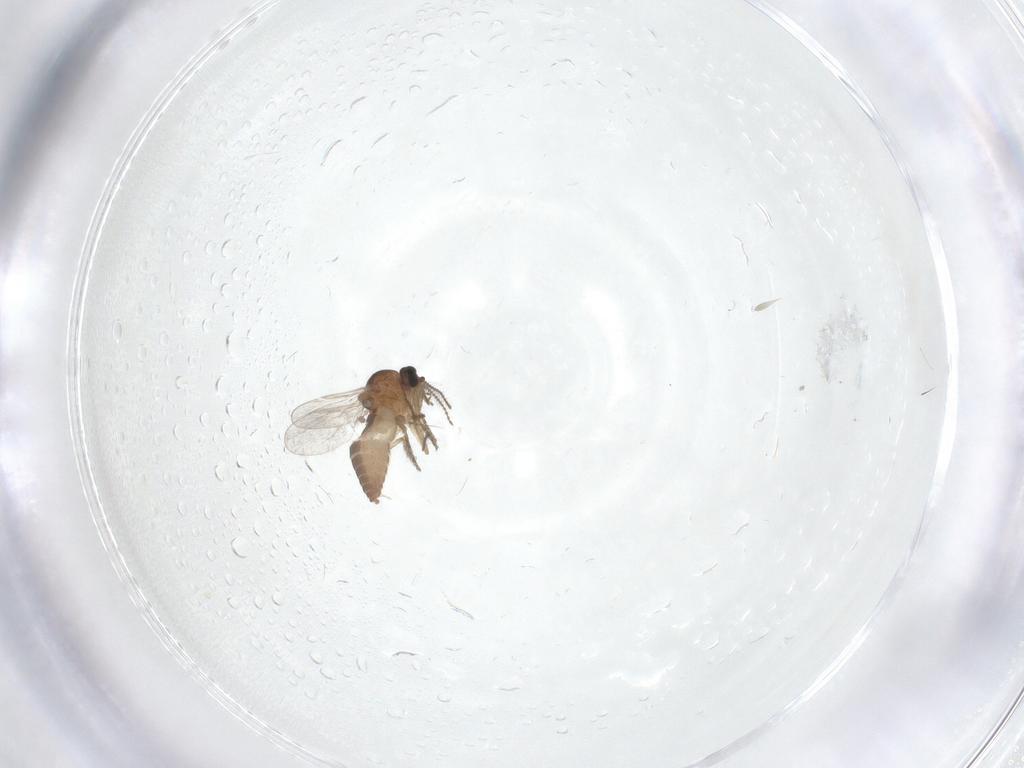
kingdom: Animalia
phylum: Arthropoda
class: Insecta
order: Diptera
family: Ceratopogonidae
